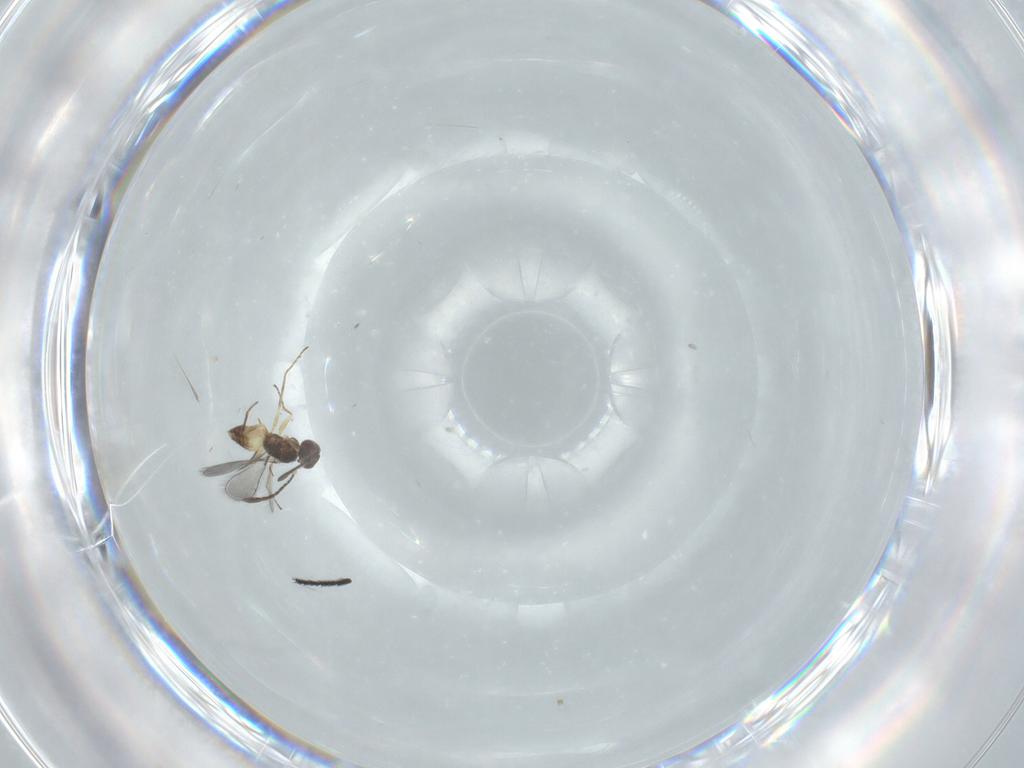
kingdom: Animalia
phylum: Arthropoda
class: Insecta
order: Hymenoptera
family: Mymaridae
